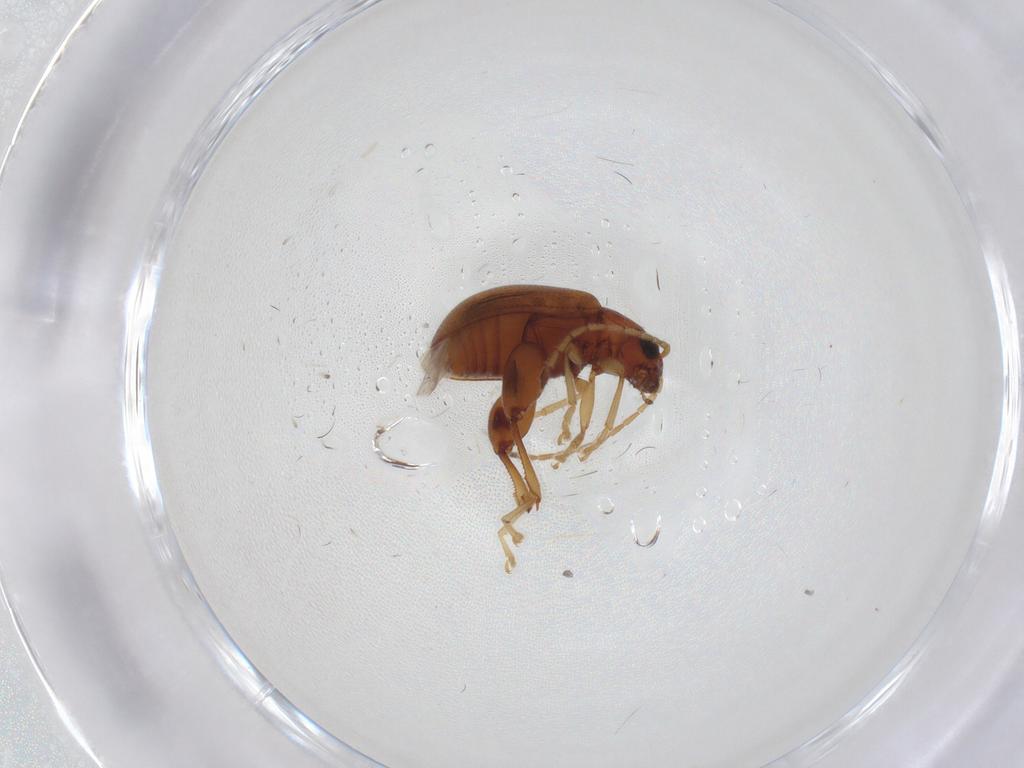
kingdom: Animalia
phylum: Arthropoda
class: Insecta
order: Coleoptera
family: Chrysomelidae
